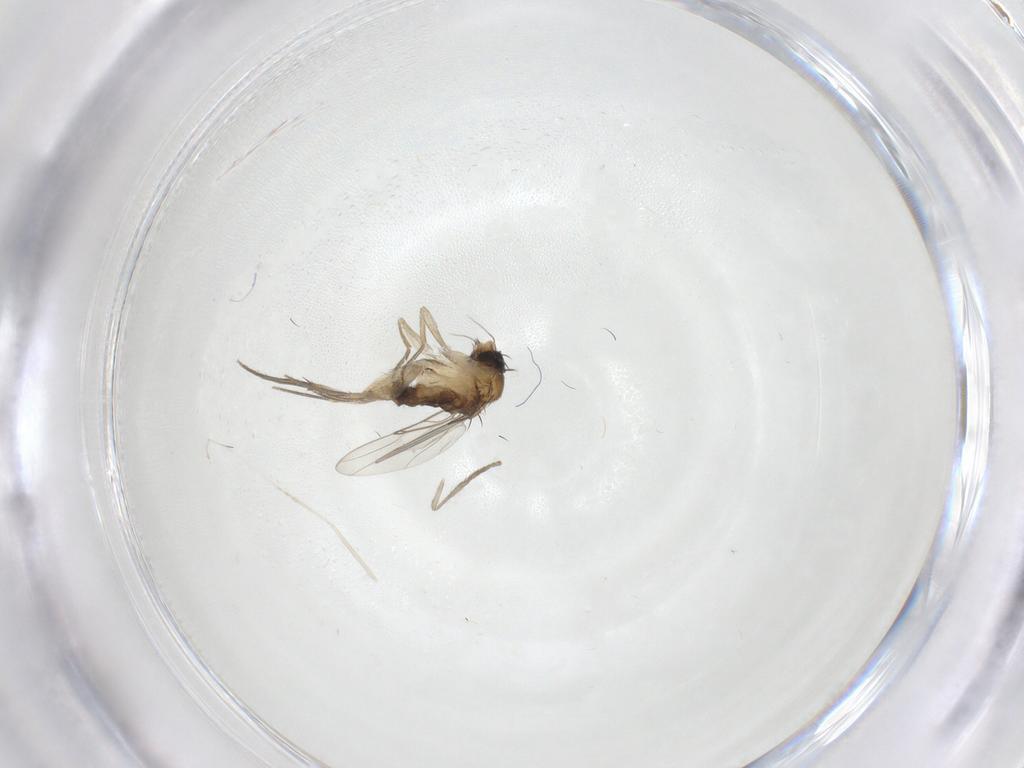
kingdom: Animalia
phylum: Arthropoda
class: Insecta
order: Diptera
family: Phoridae
